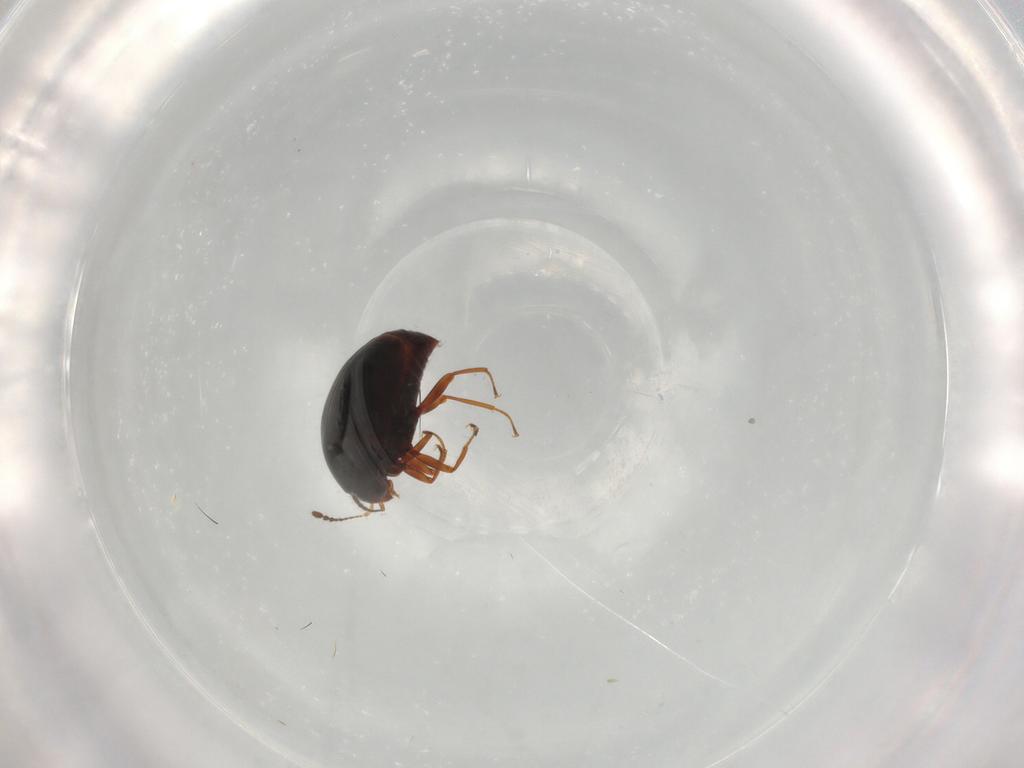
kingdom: Animalia
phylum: Arthropoda
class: Insecta
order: Coleoptera
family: Staphylinidae
